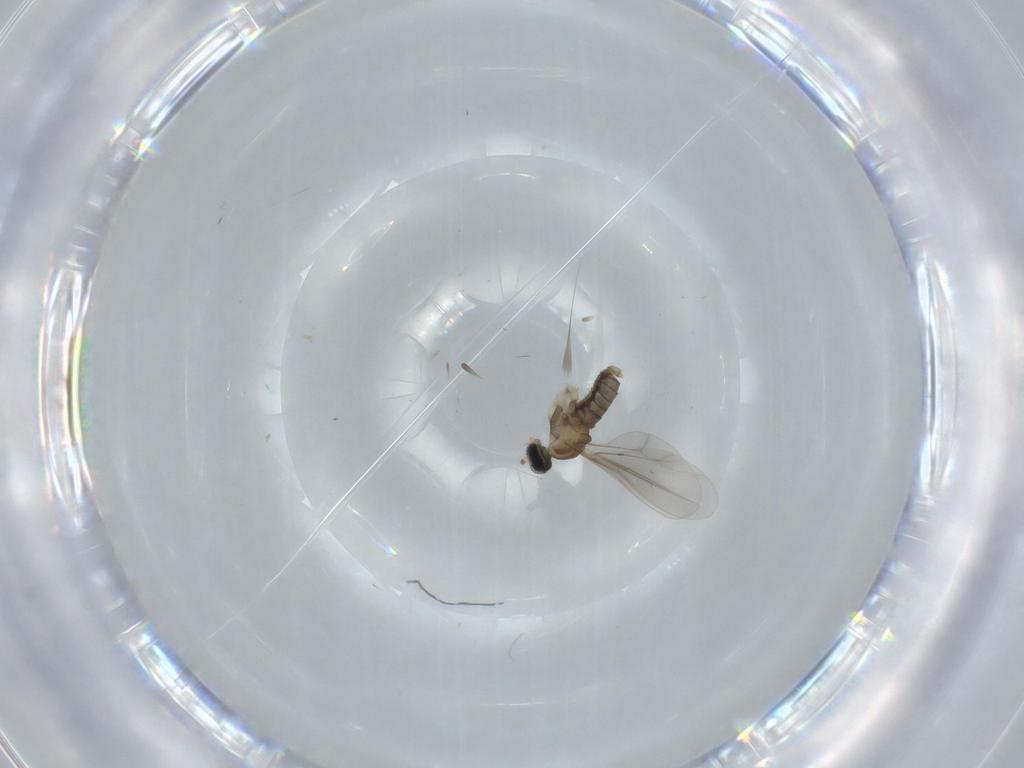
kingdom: Animalia
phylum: Arthropoda
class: Insecta
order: Diptera
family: Cecidomyiidae
